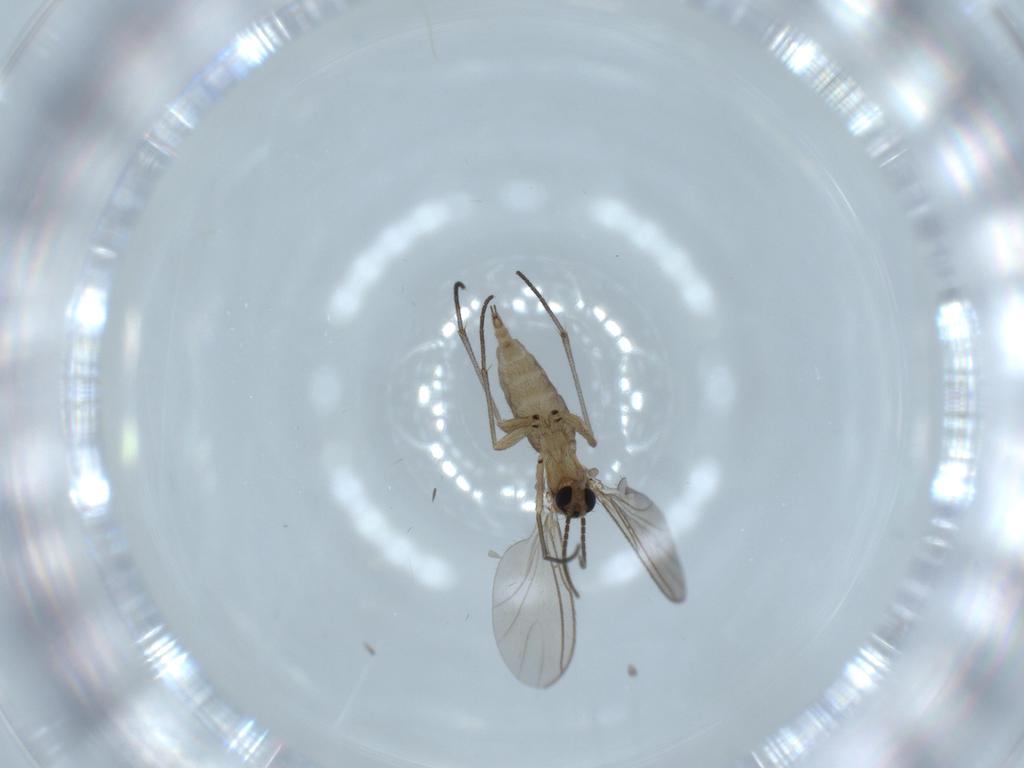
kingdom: Animalia
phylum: Arthropoda
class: Insecta
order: Diptera
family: Sciaridae
